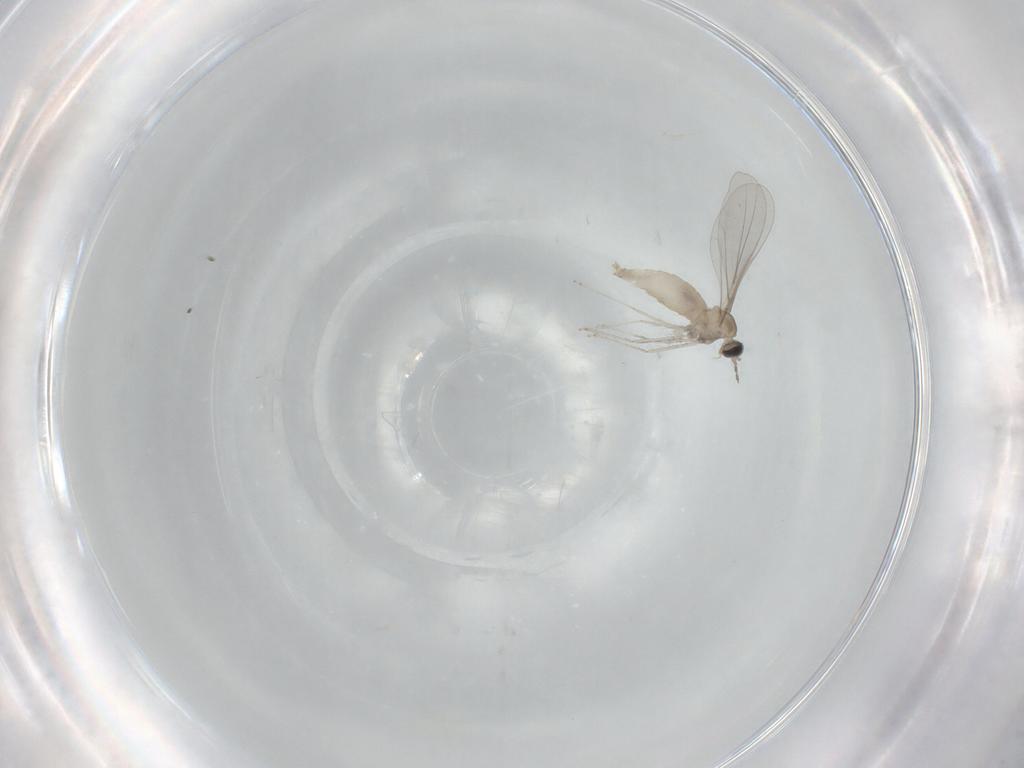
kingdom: Animalia
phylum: Arthropoda
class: Insecta
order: Diptera
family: Cecidomyiidae
